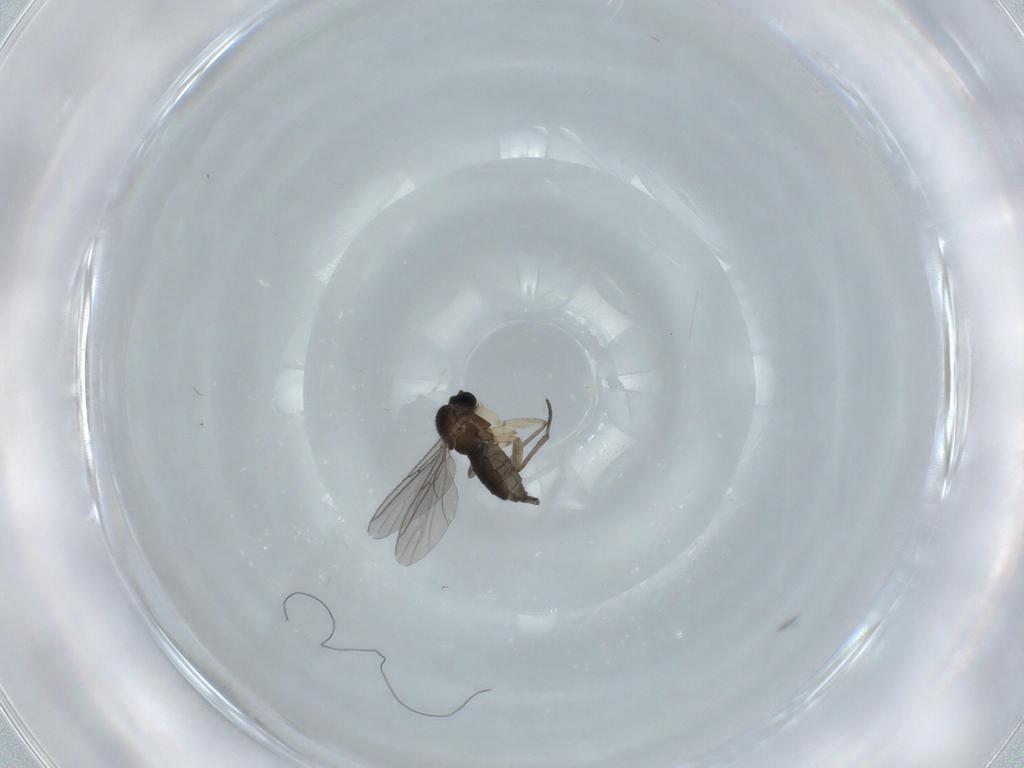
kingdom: Animalia
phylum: Arthropoda
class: Insecta
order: Diptera
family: Sciaridae
